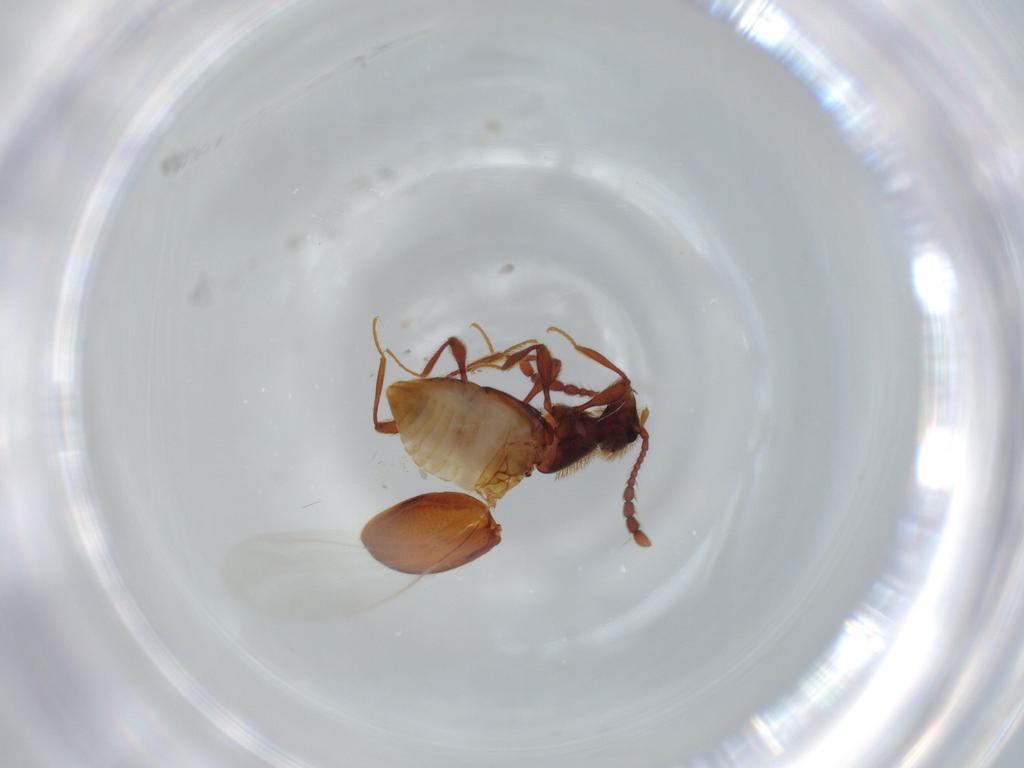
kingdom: Animalia
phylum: Arthropoda
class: Insecta
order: Coleoptera
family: Staphylinidae
